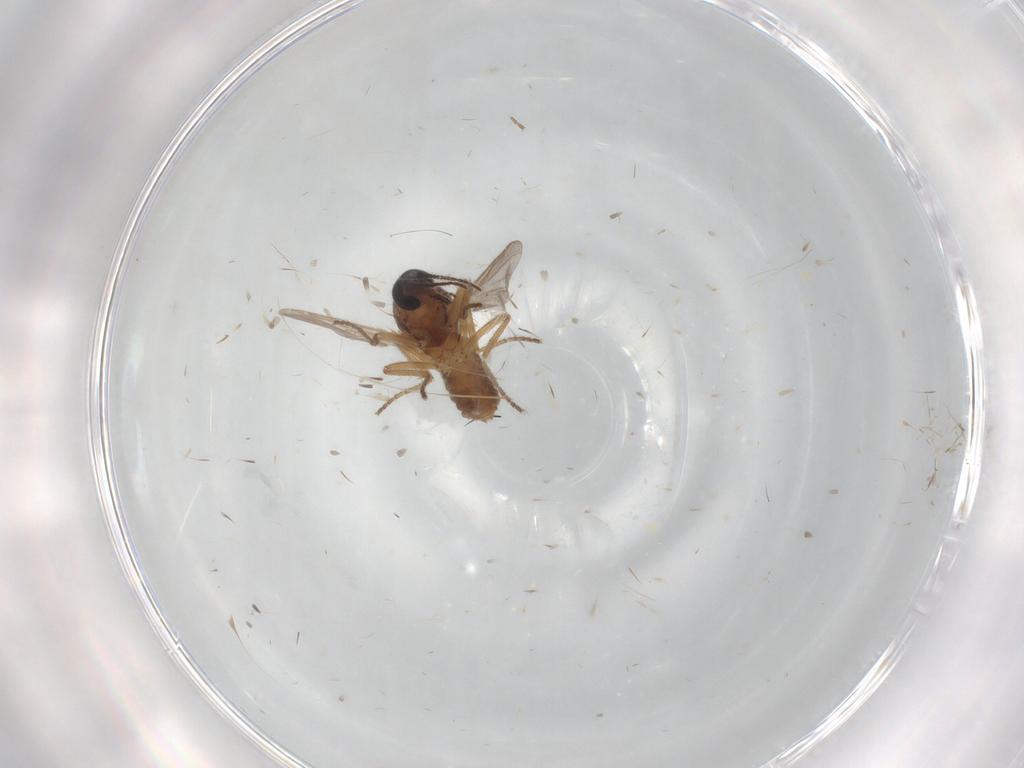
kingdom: Animalia
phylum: Arthropoda
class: Insecta
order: Diptera
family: Ceratopogonidae
